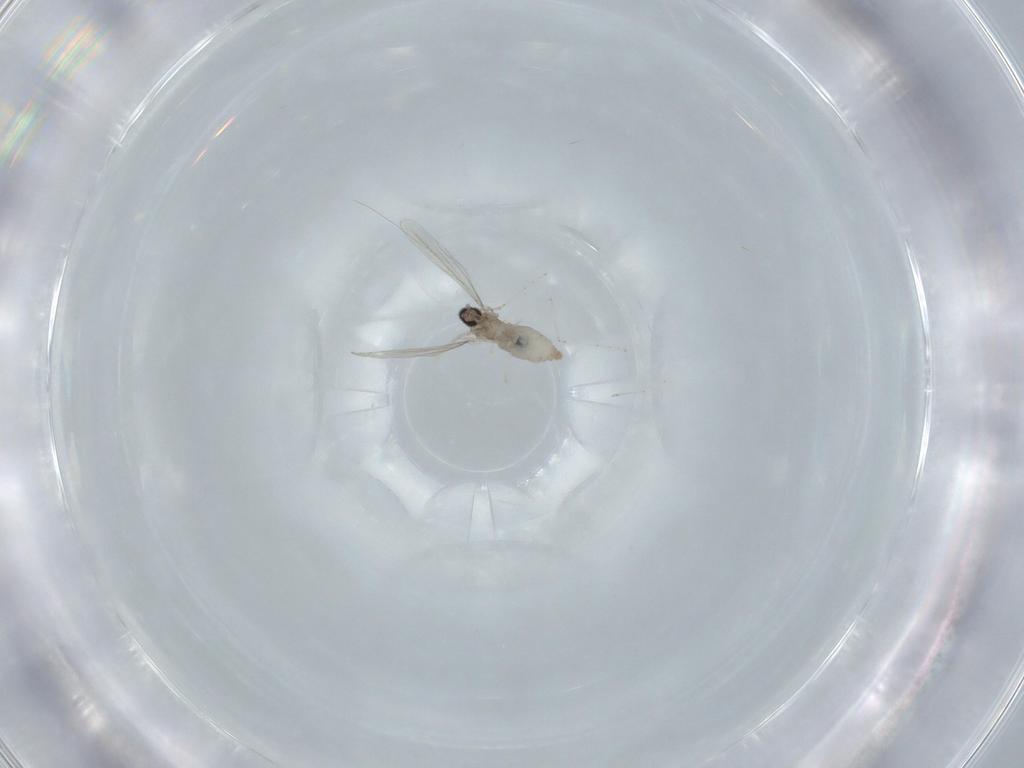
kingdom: Animalia
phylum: Arthropoda
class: Insecta
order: Diptera
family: Cecidomyiidae
